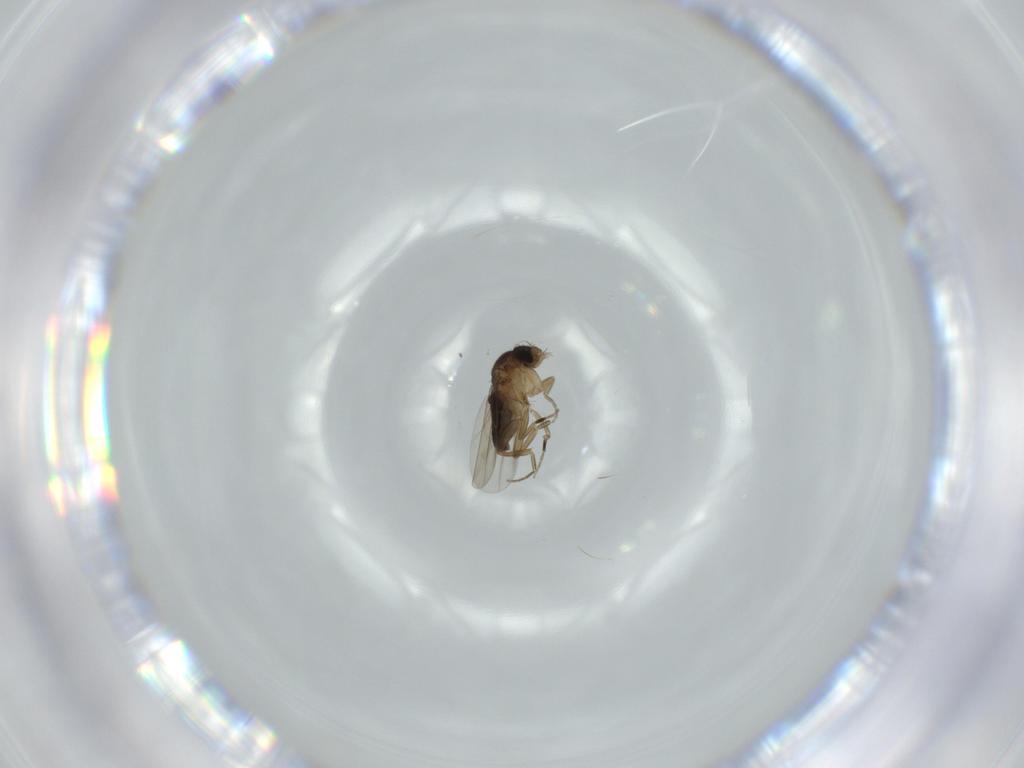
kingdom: Animalia
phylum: Arthropoda
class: Insecta
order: Diptera
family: Phoridae
